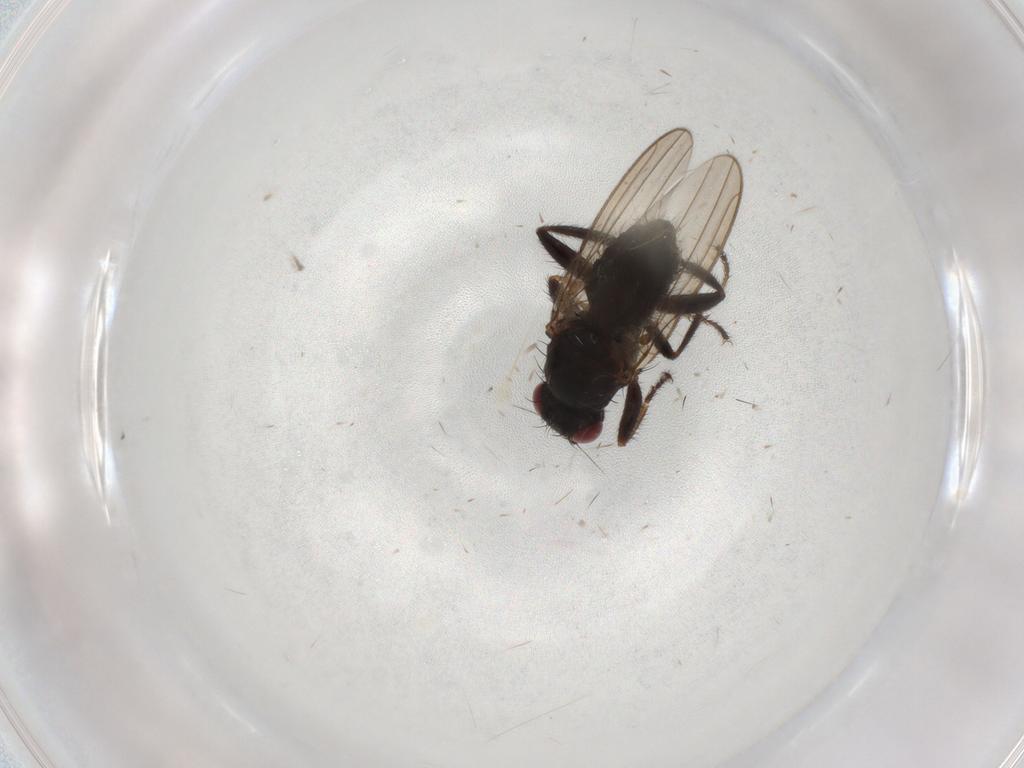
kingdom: Animalia
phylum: Arthropoda
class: Insecta
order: Diptera
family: Sphaeroceridae
